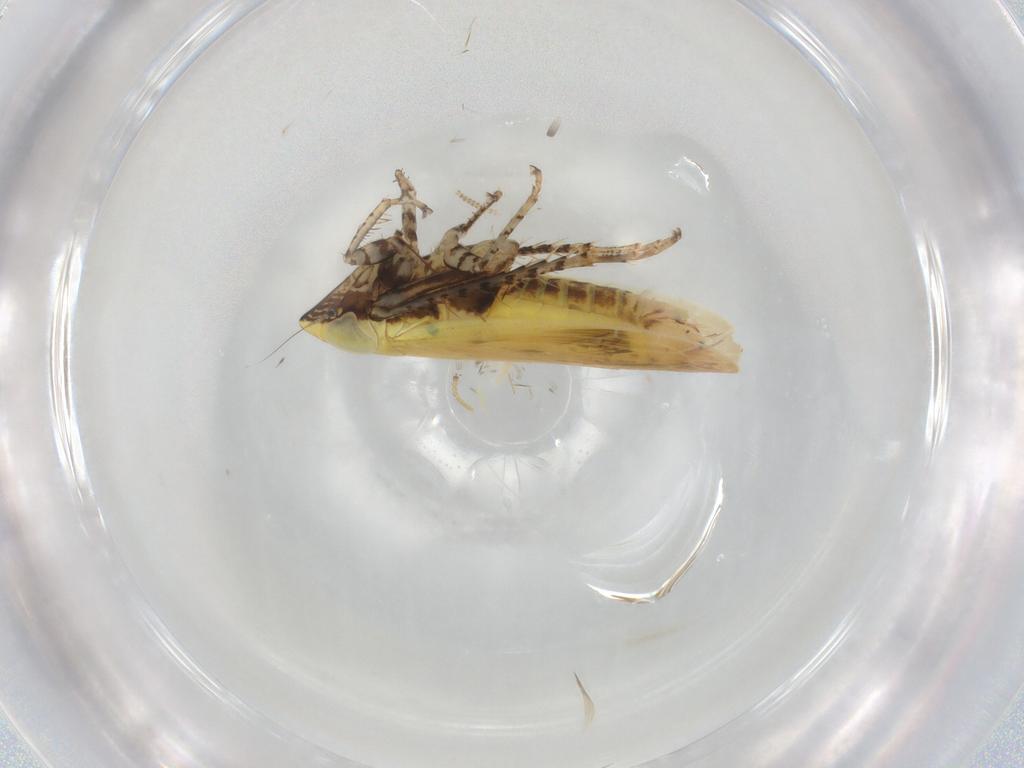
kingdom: Animalia
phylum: Arthropoda
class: Insecta
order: Hemiptera
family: Cicadellidae
